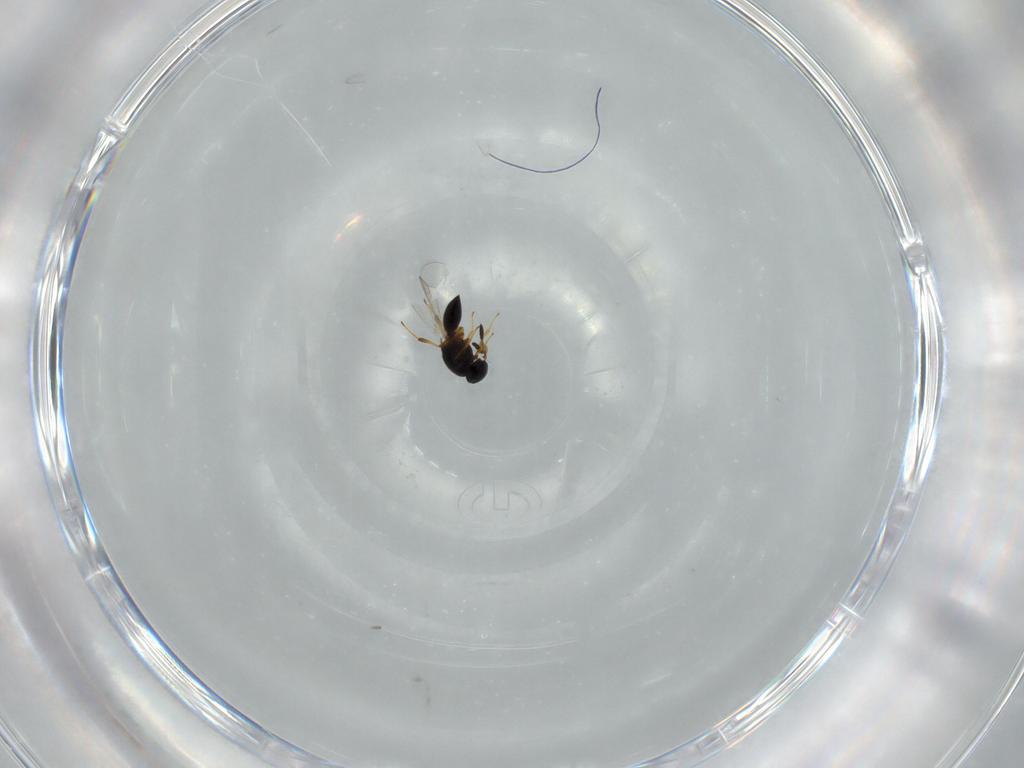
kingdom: Animalia
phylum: Arthropoda
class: Insecta
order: Hymenoptera
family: Platygastridae
